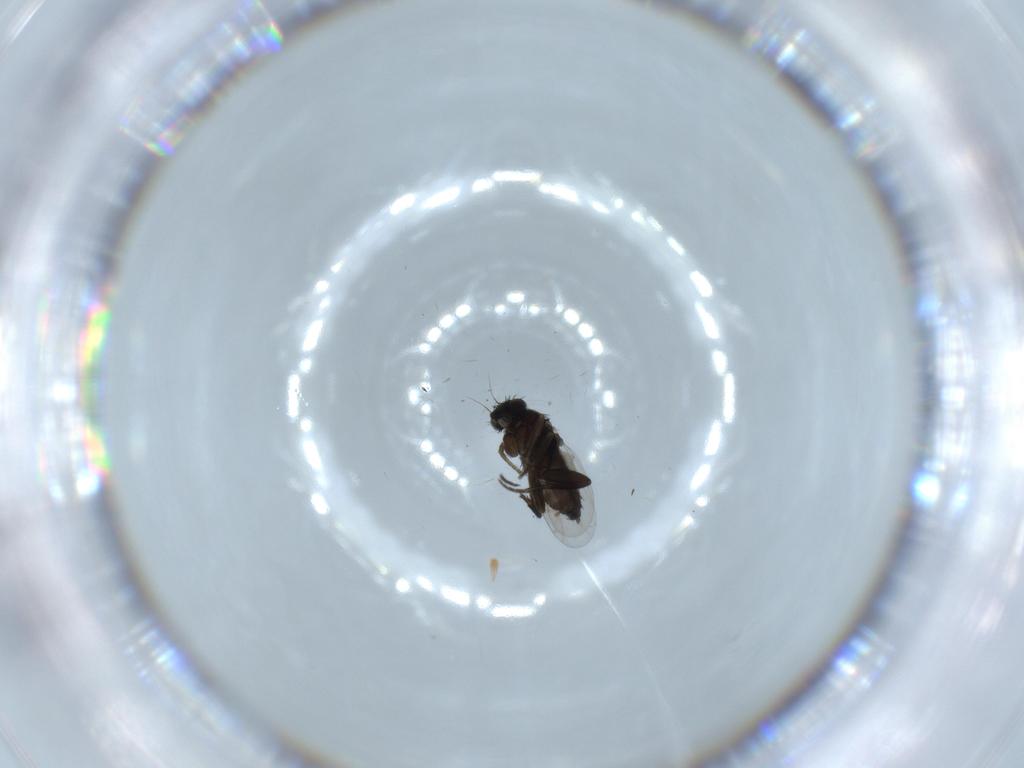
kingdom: Animalia
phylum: Arthropoda
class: Insecta
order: Diptera
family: Phoridae
